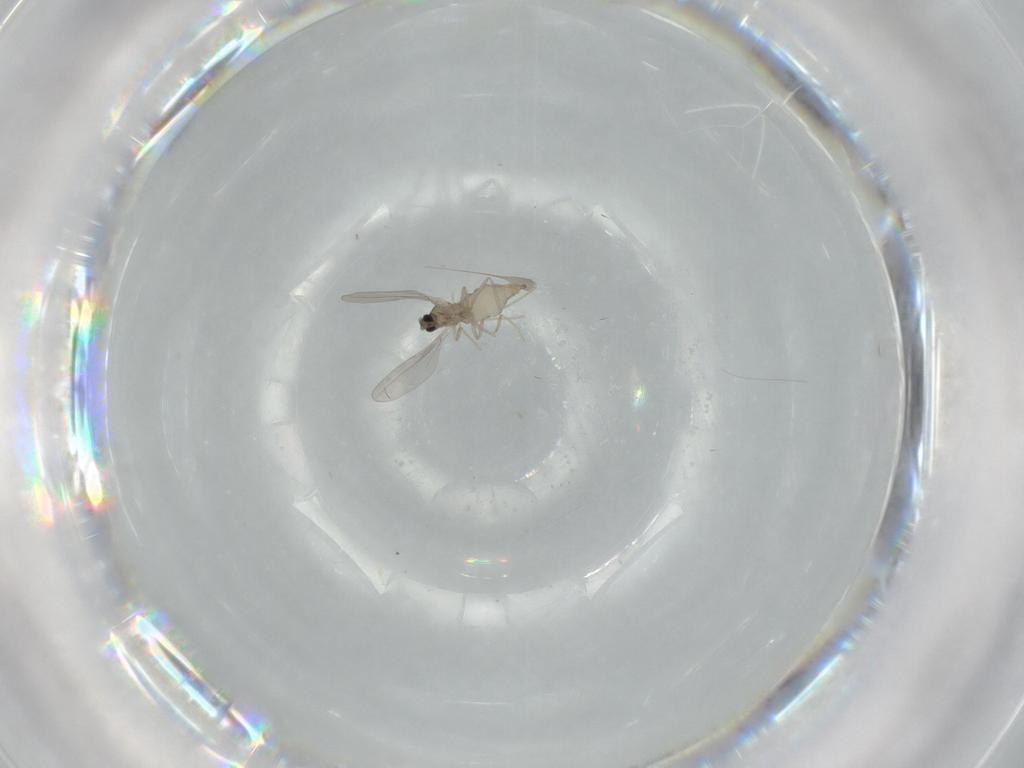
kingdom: Animalia
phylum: Arthropoda
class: Insecta
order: Diptera
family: Cecidomyiidae
